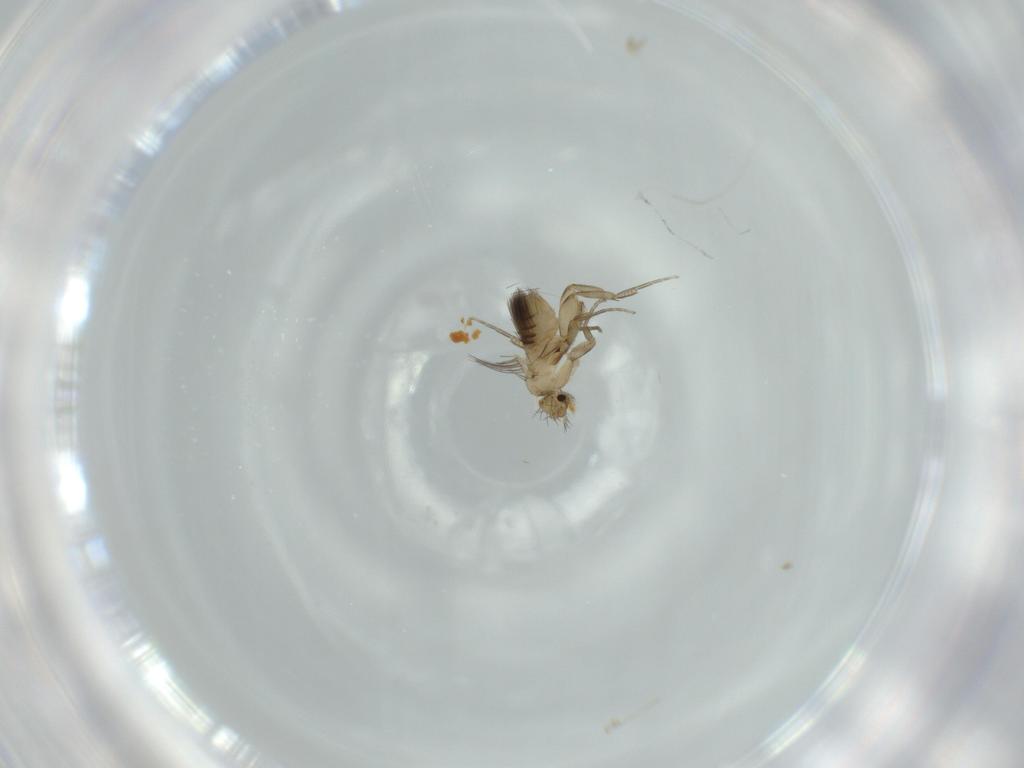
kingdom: Animalia
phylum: Arthropoda
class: Insecta
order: Diptera
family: Phoridae
